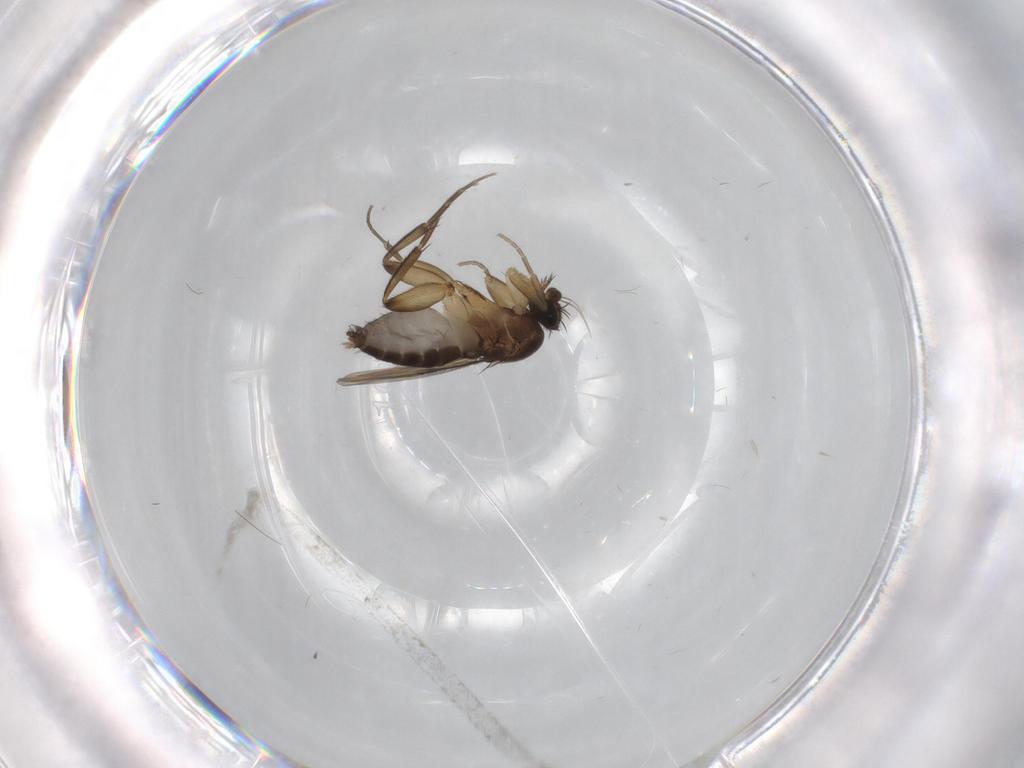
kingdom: Animalia
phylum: Arthropoda
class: Insecta
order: Diptera
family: Phoridae
